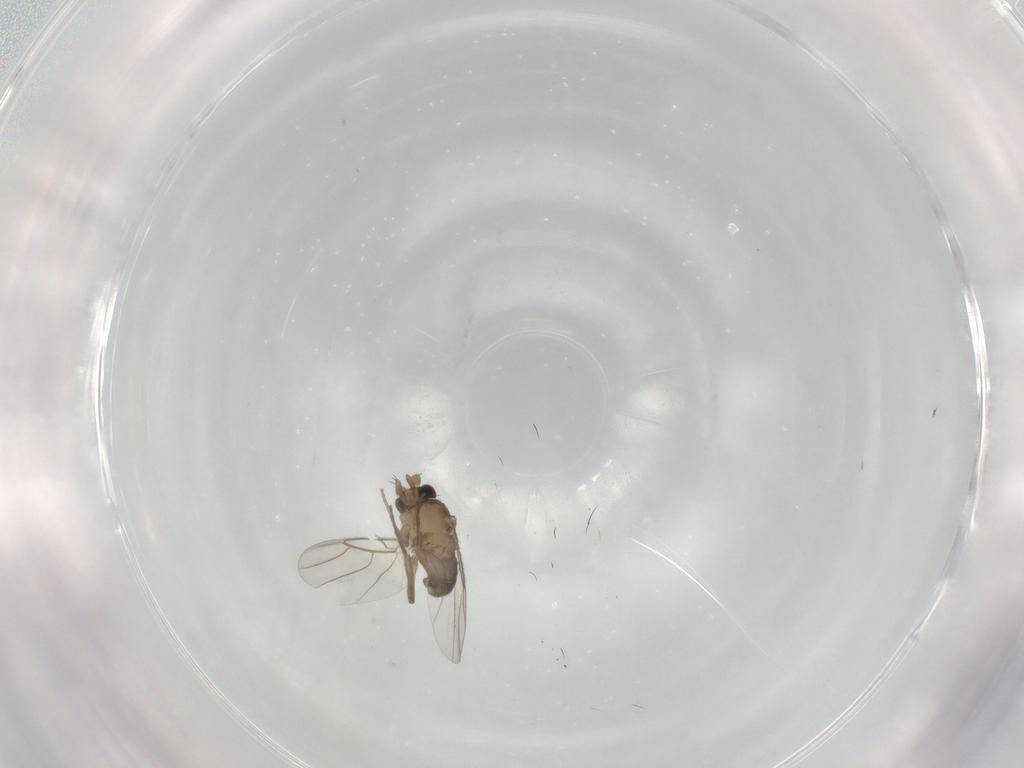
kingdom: Animalia
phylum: Arthropoda
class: Insecta
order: Diptera
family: Phoridae
